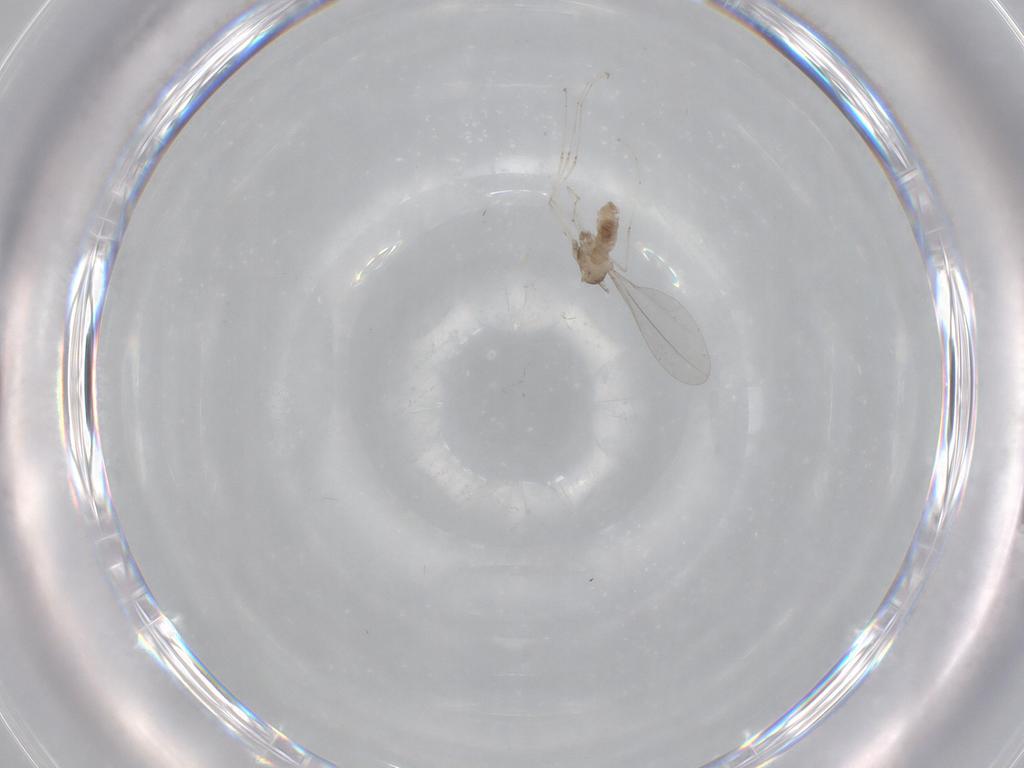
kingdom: Animalia
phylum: Arthropoda
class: Insecta
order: Diptera
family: Cecidomyiidae
